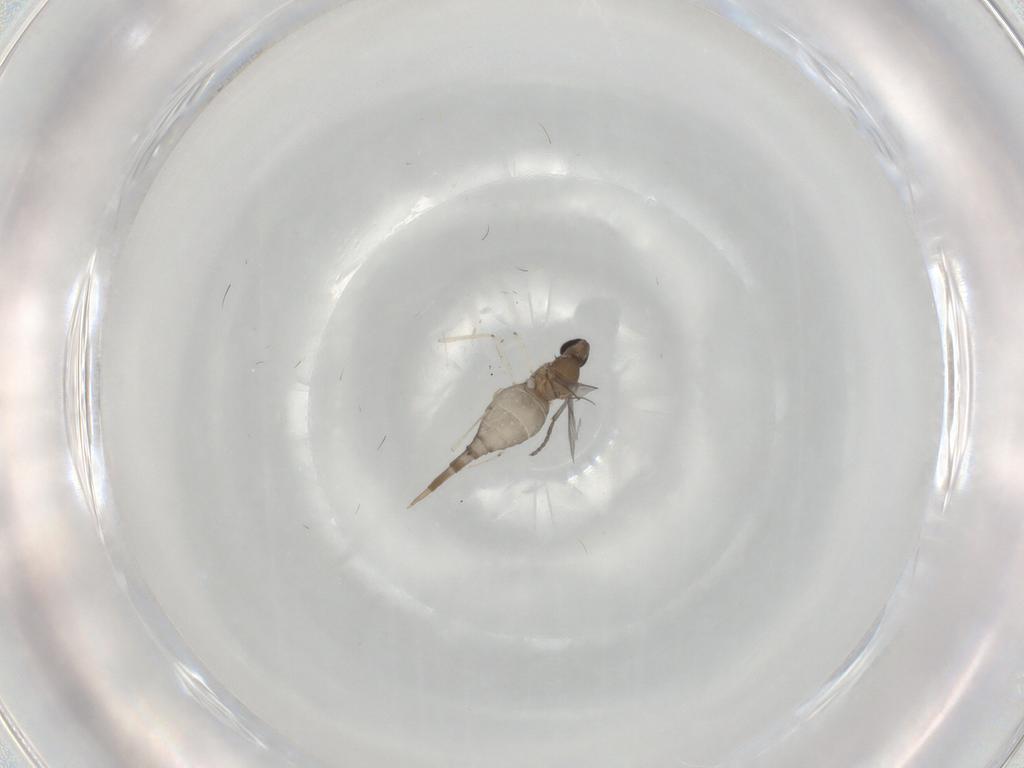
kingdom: Animalia
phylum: Arthropoda
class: Insecta
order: Diptera
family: Cecidomyiidae
